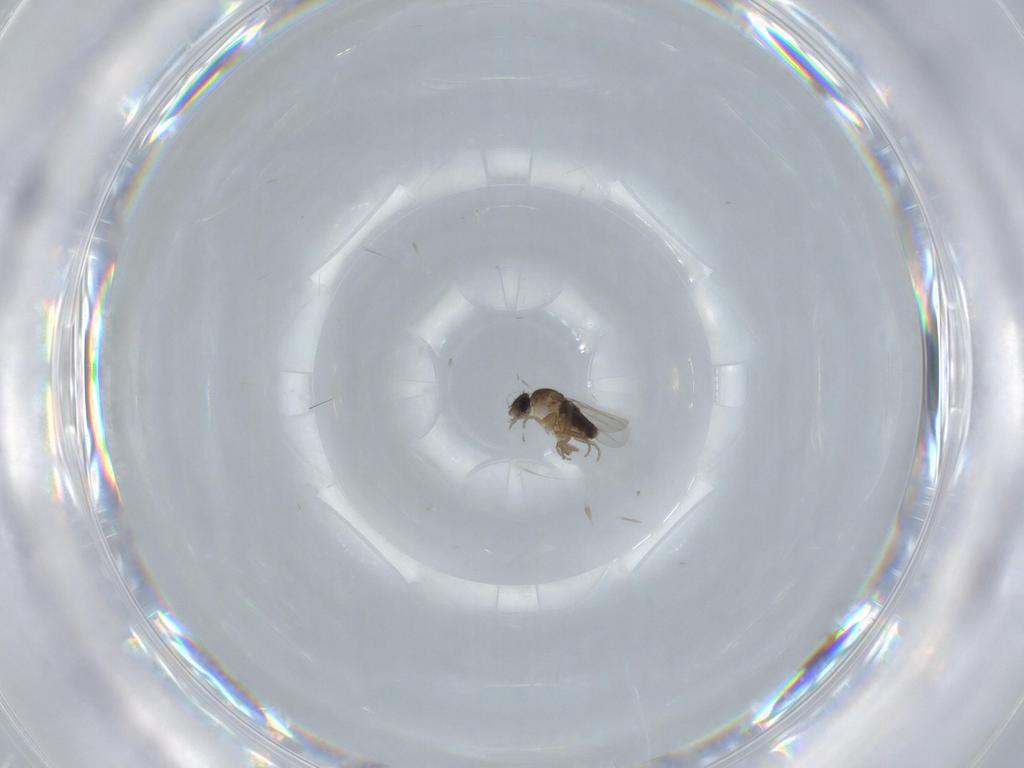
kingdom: Animalia
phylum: Arthropoda
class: Insecta
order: Diptera
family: Phoridae
